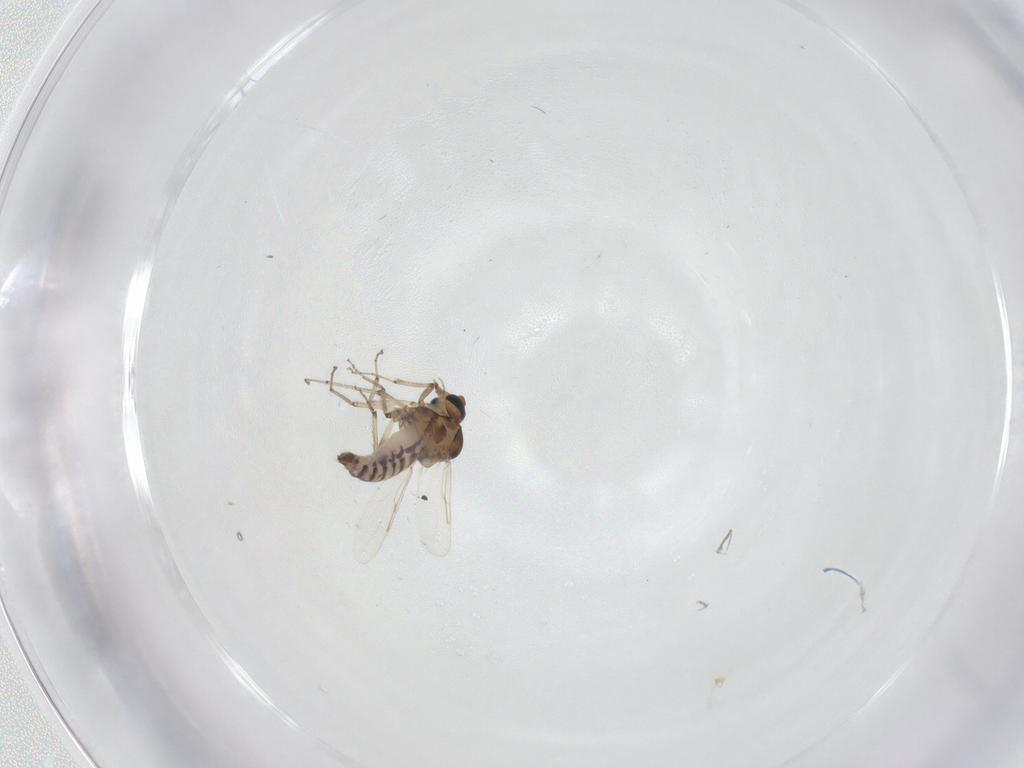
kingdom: Animalia
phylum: Arthropoda
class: Insecta
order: Diptera
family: Ceratopogonidae
